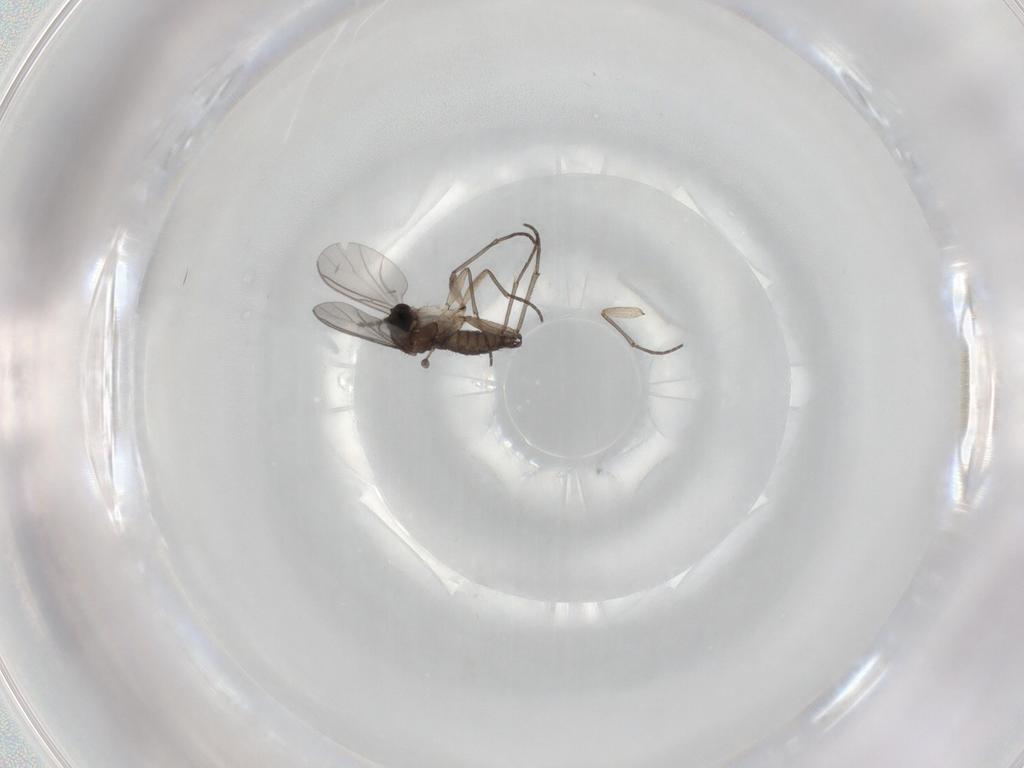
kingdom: Animalia
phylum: Arthropoda
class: Insecta
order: Diptera
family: Sciaridae
